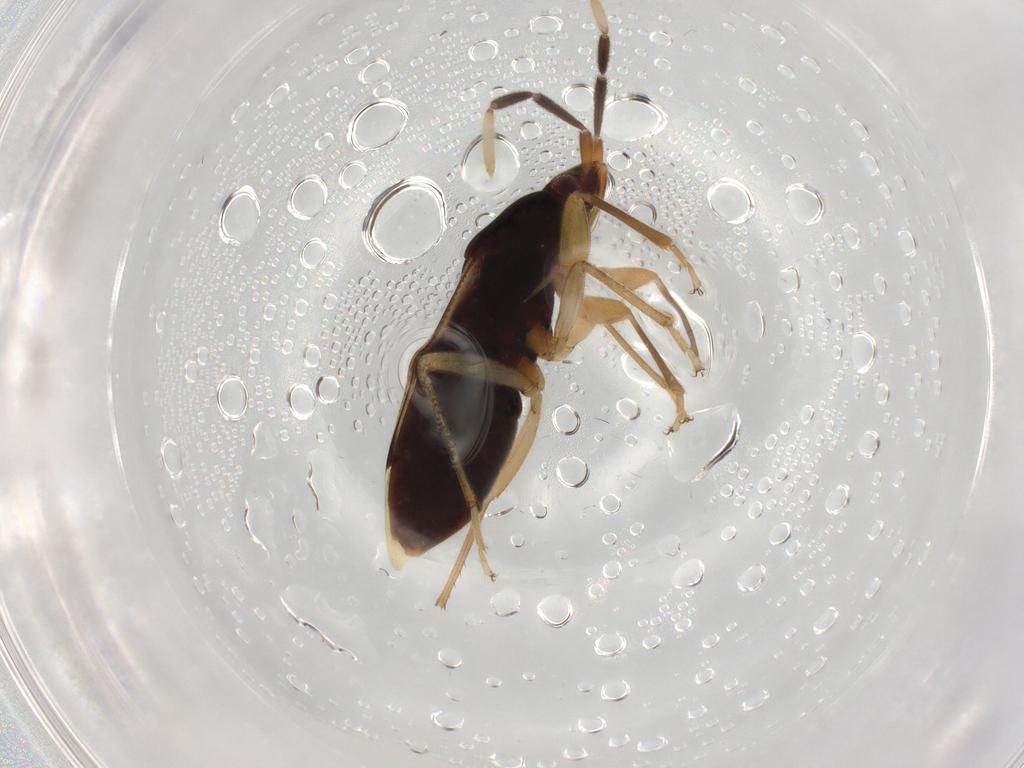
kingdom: Animalia
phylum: Arthropoda
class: Insecta
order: Hemiptera
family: Rhyparochromidae
